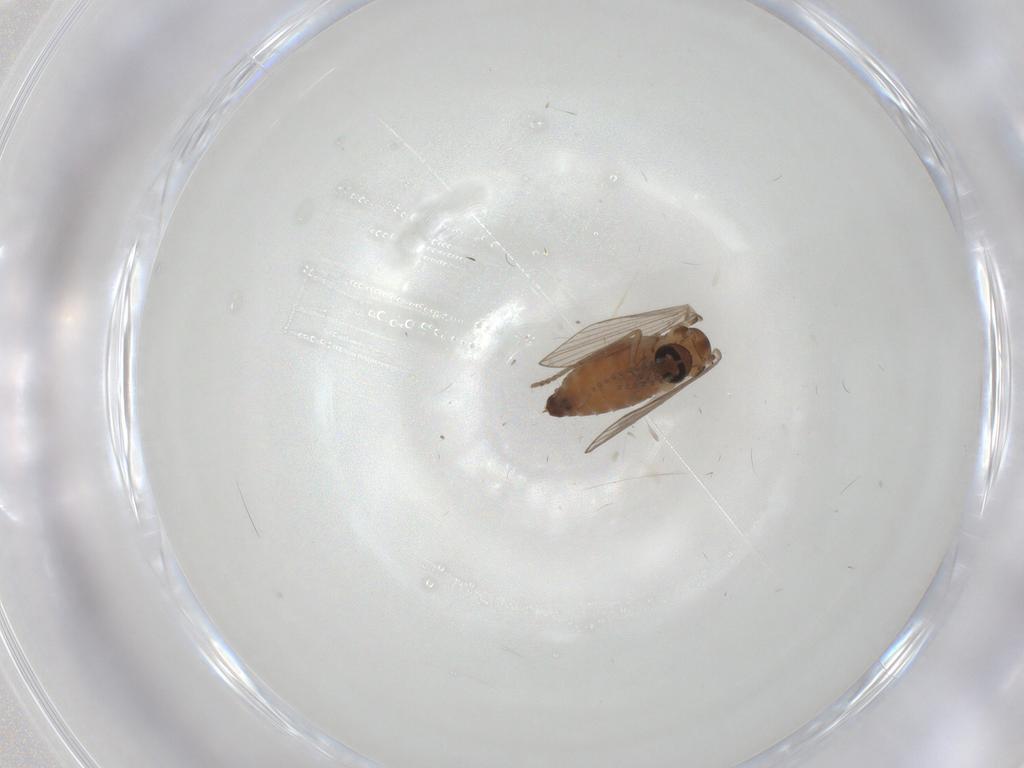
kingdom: Animalia
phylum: Arthropoda
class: Insecta
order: Diptera
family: Psychodidae
